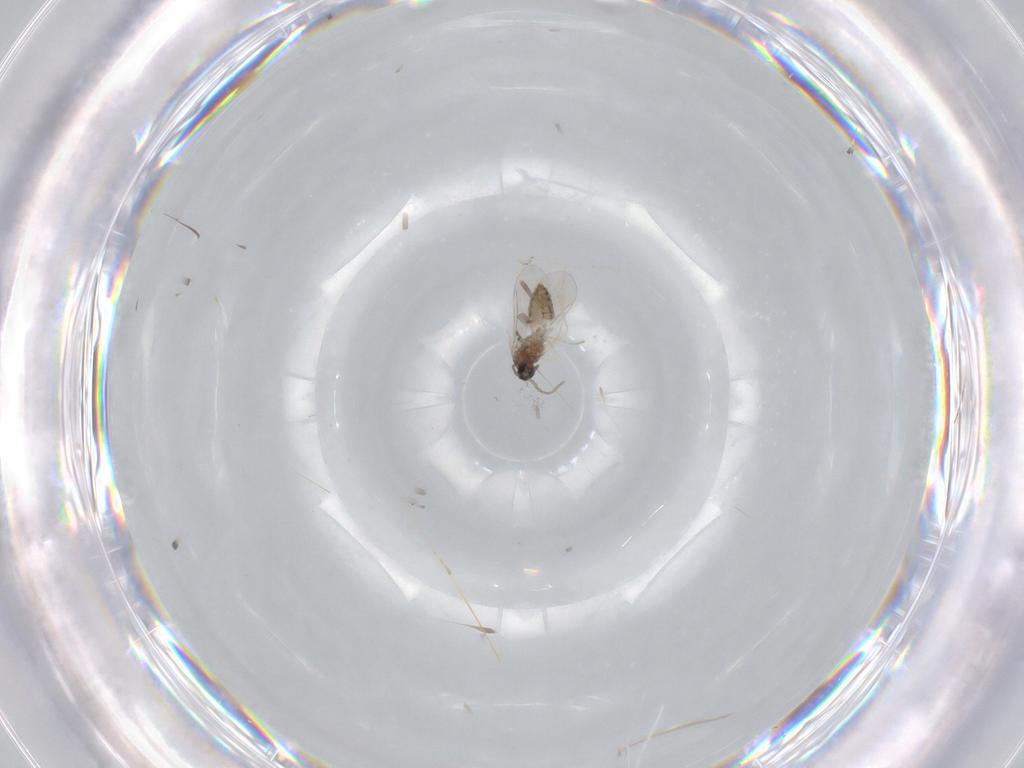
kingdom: Animalia
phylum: Arthropoda
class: Insecta
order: Diptera
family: Cecidomyiidae
